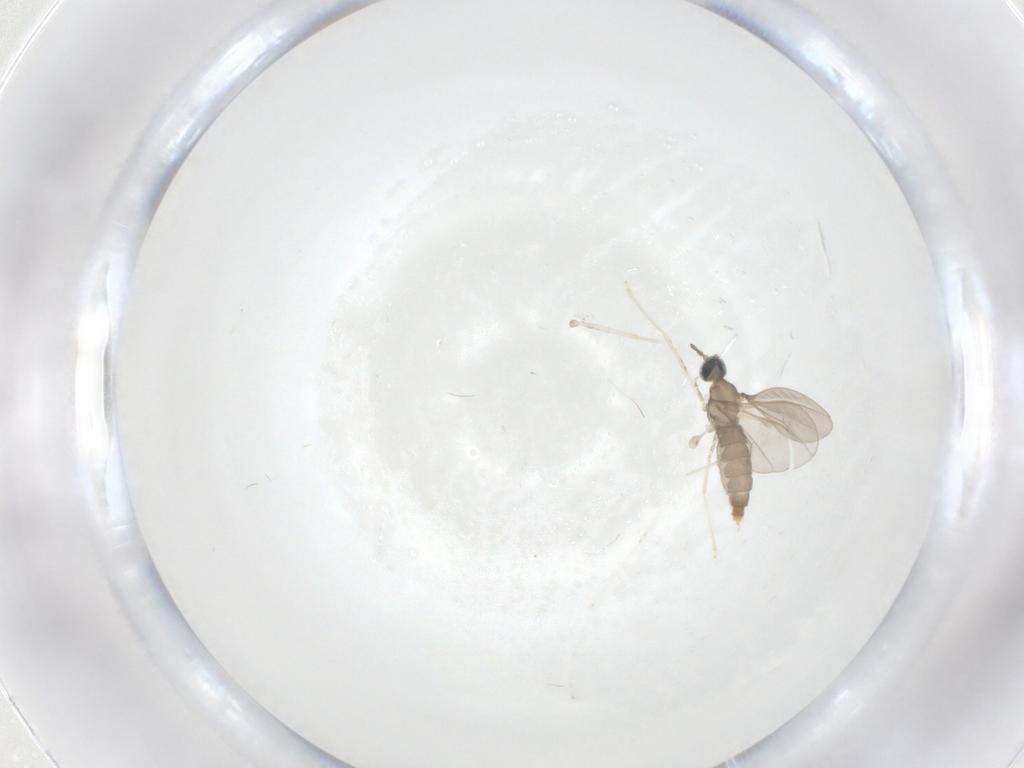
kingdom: Animalia
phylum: Arthropoda
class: Insecta
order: Diptera
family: Cecidomyiidae
